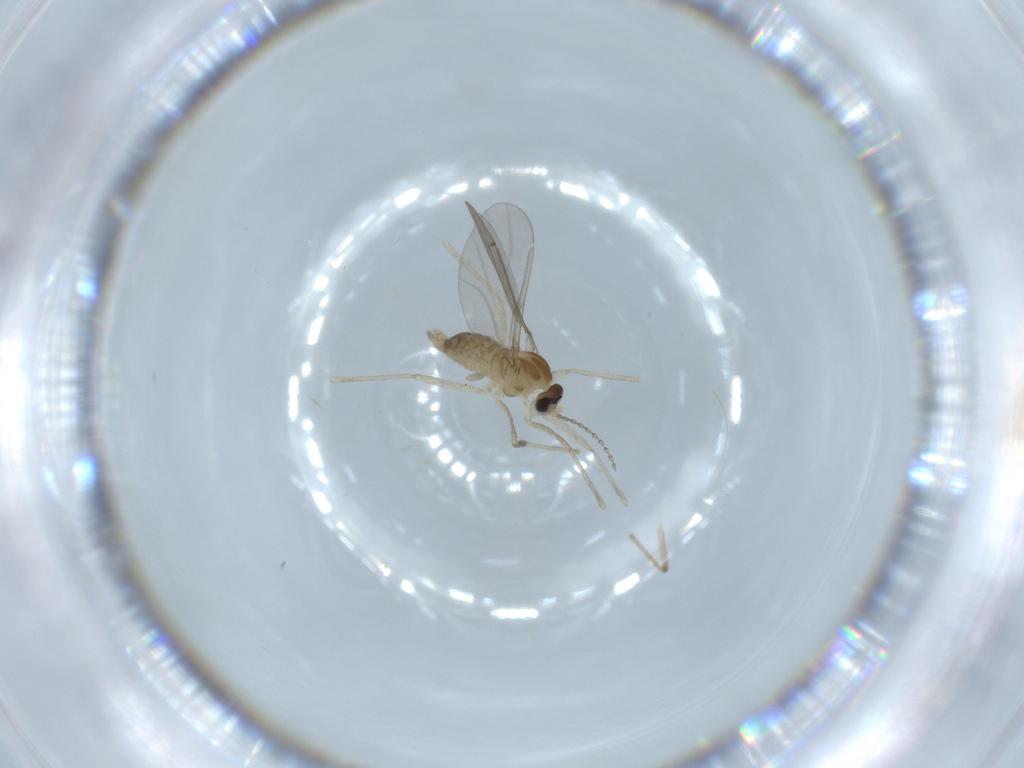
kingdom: Animalia
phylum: Arthropoda
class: Insecta
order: Diptera
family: Cecidomyiidae
